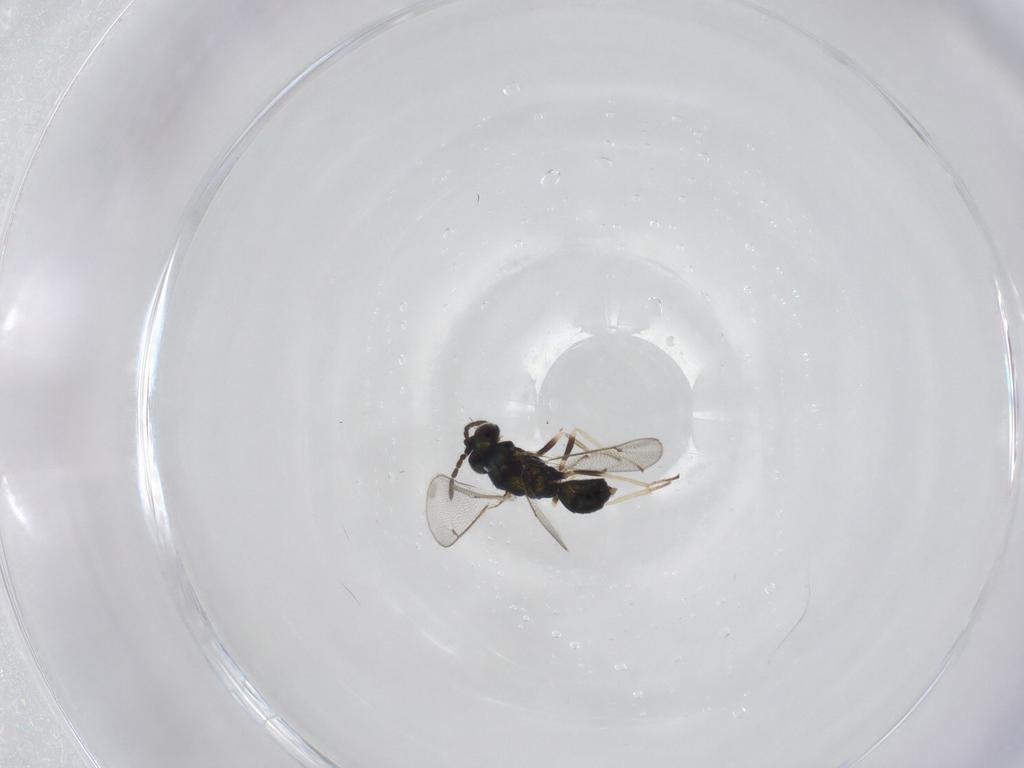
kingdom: Animalia
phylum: Arthropoda
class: Insecta
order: Hymenoptera
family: Eulophidae
